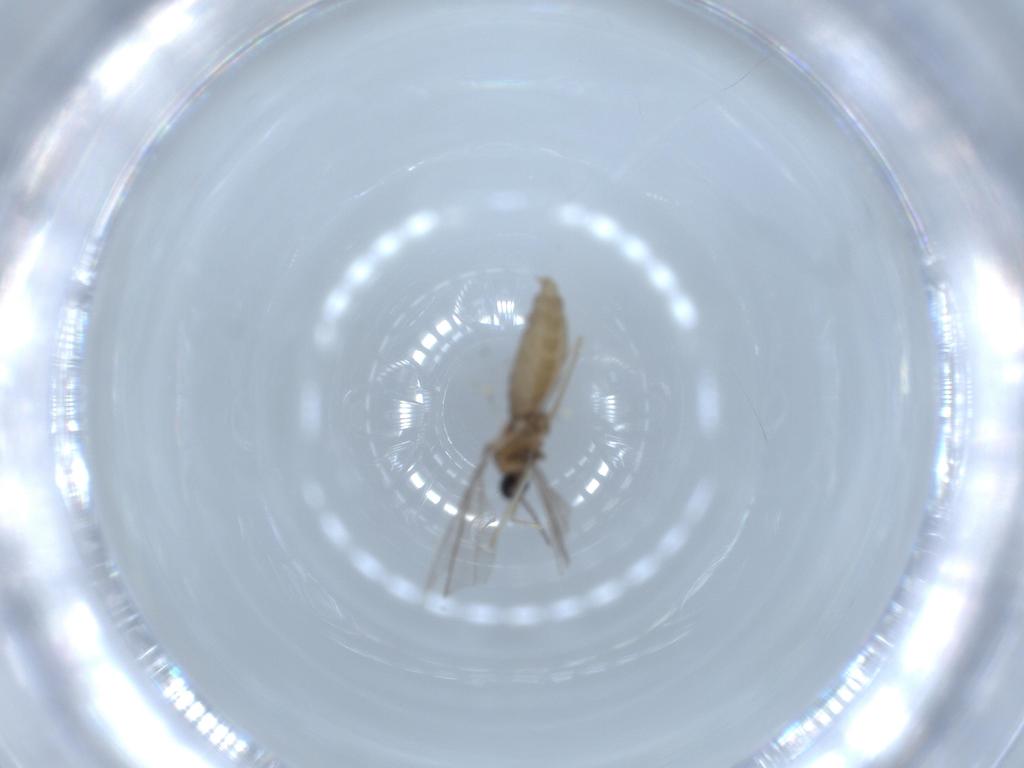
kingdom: Animalia
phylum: Arthropoda
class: Insecta
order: Diptera
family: Cecidomyiidae
